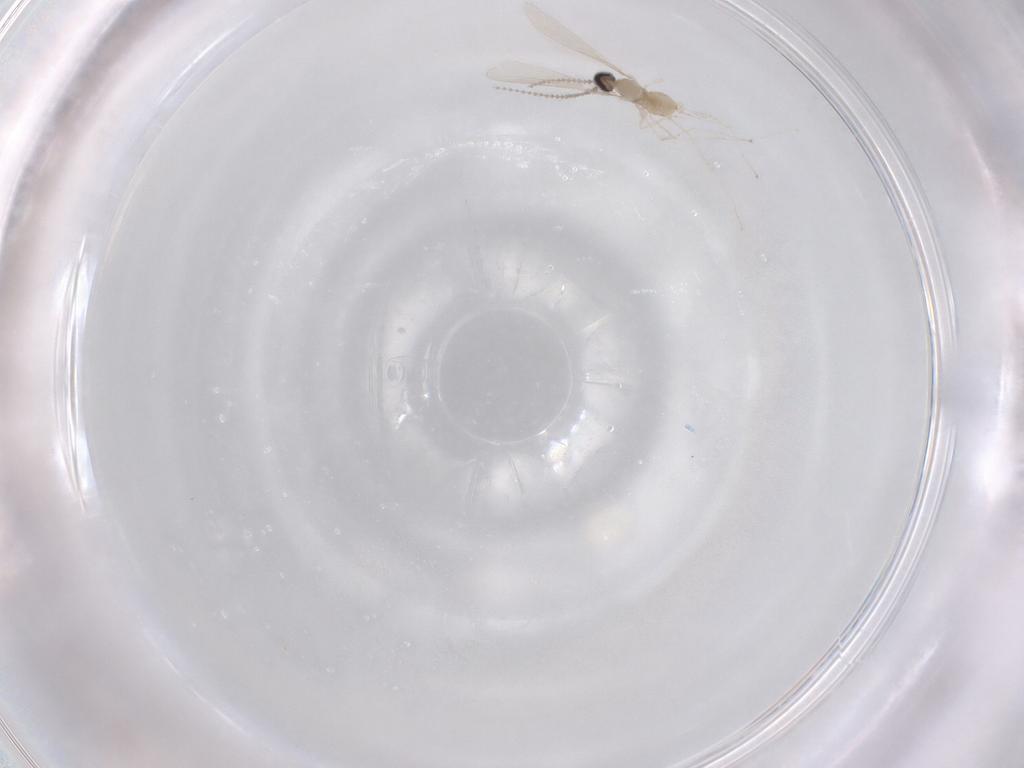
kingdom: Animalia
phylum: Arthropoda
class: Insecta
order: Diptera
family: Cecidomyiidae
